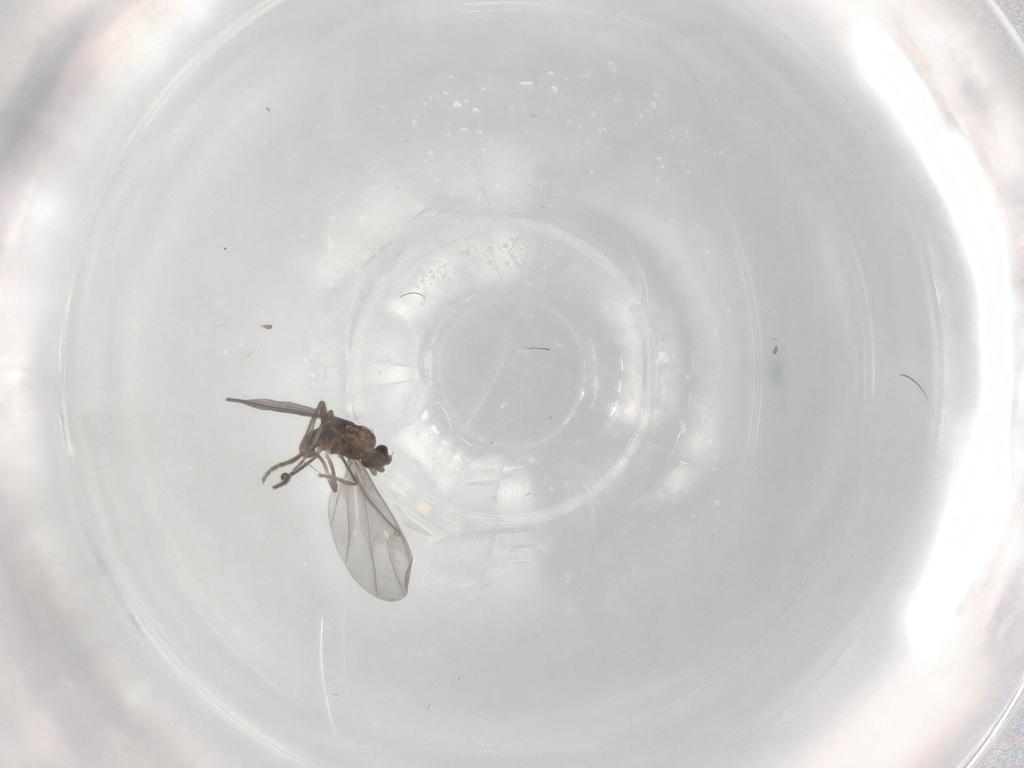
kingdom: Animalia
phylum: Arthropoda
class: Insecta
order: Diptera
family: Phoridae
